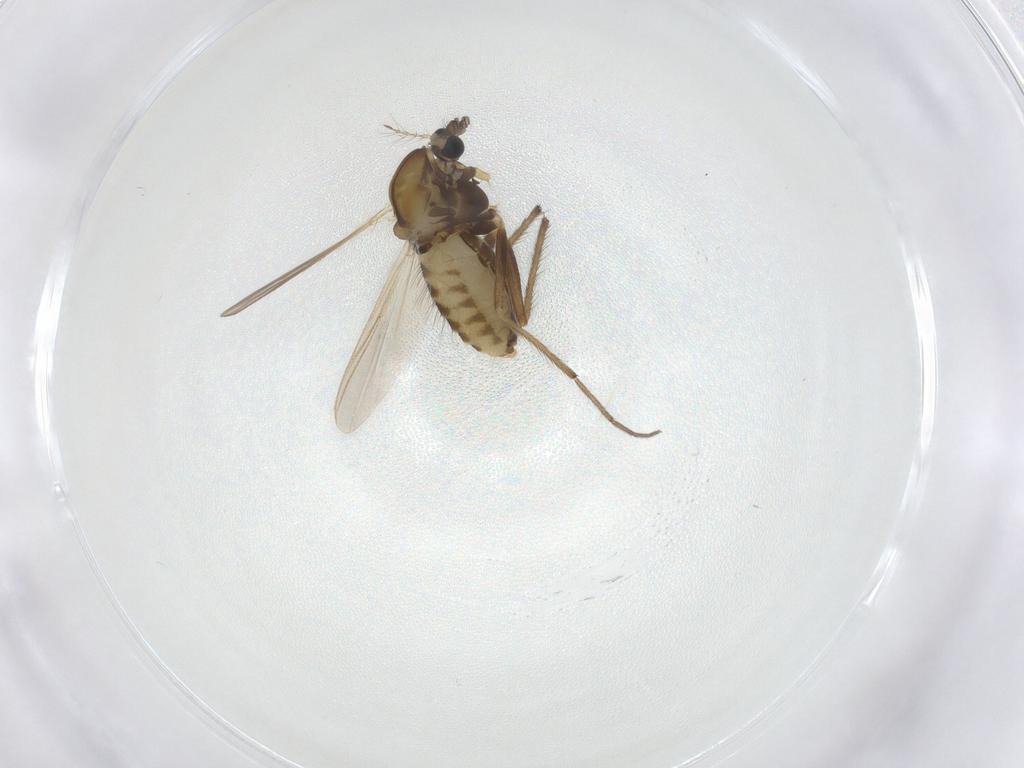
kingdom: Animalia
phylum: Arthropoda
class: Insecta
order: Diptera
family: Chironomidae
